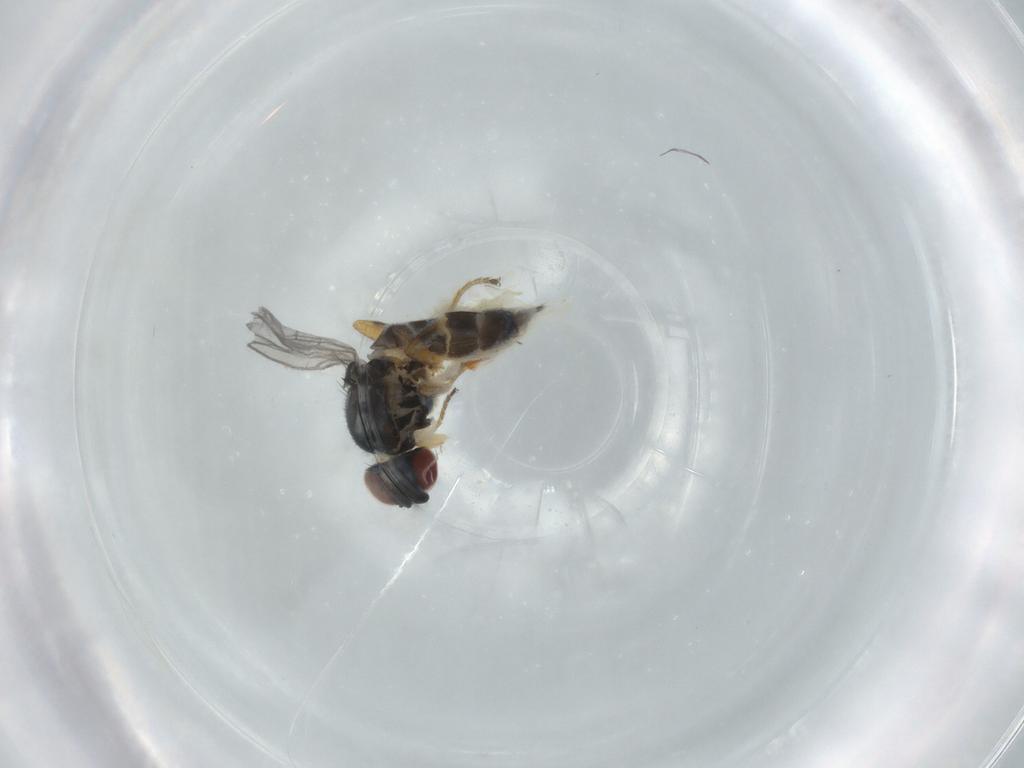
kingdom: Animalia
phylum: Arthropoda
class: Insecta
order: Diptera
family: Chloropidae
